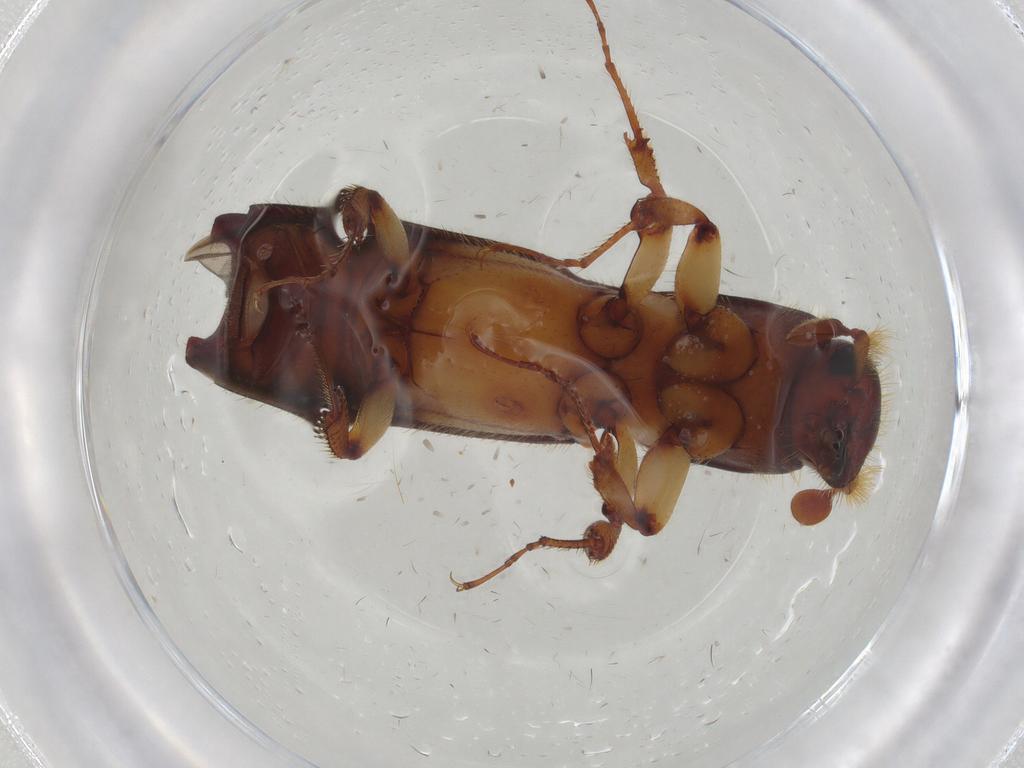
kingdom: Animalia
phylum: Arthropoda
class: Insecta
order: Coleoptera
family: Curculionidae
